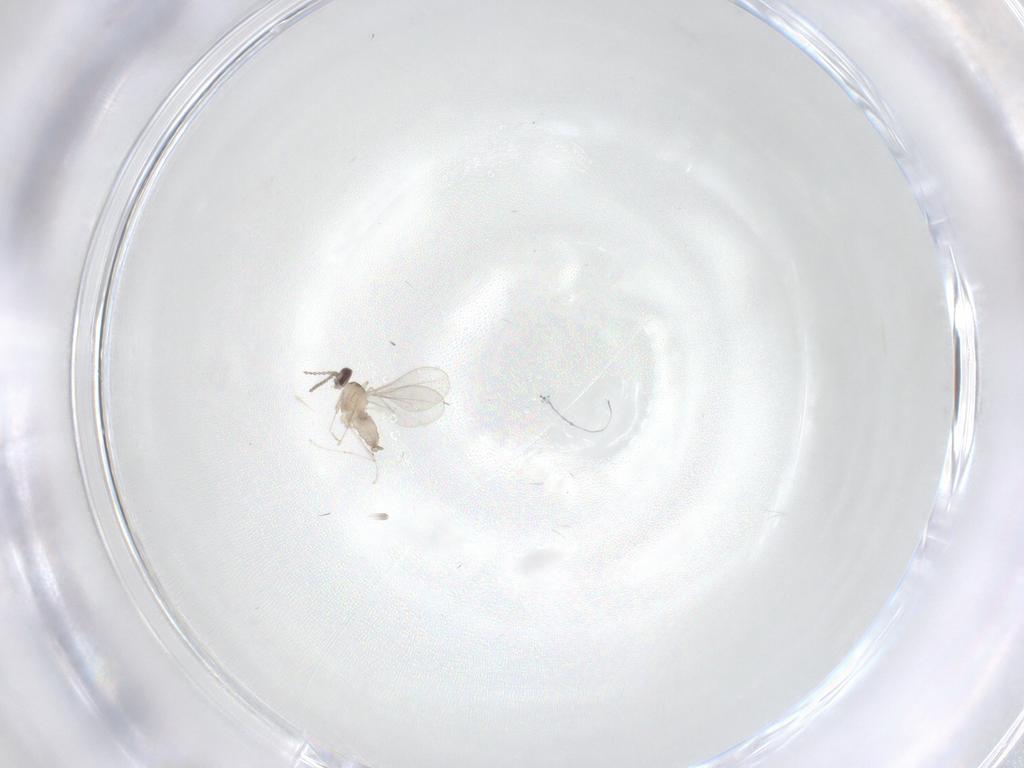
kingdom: Animalia
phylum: Arthropoda
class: Insecta
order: Diptera
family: Cecidomyiidae
